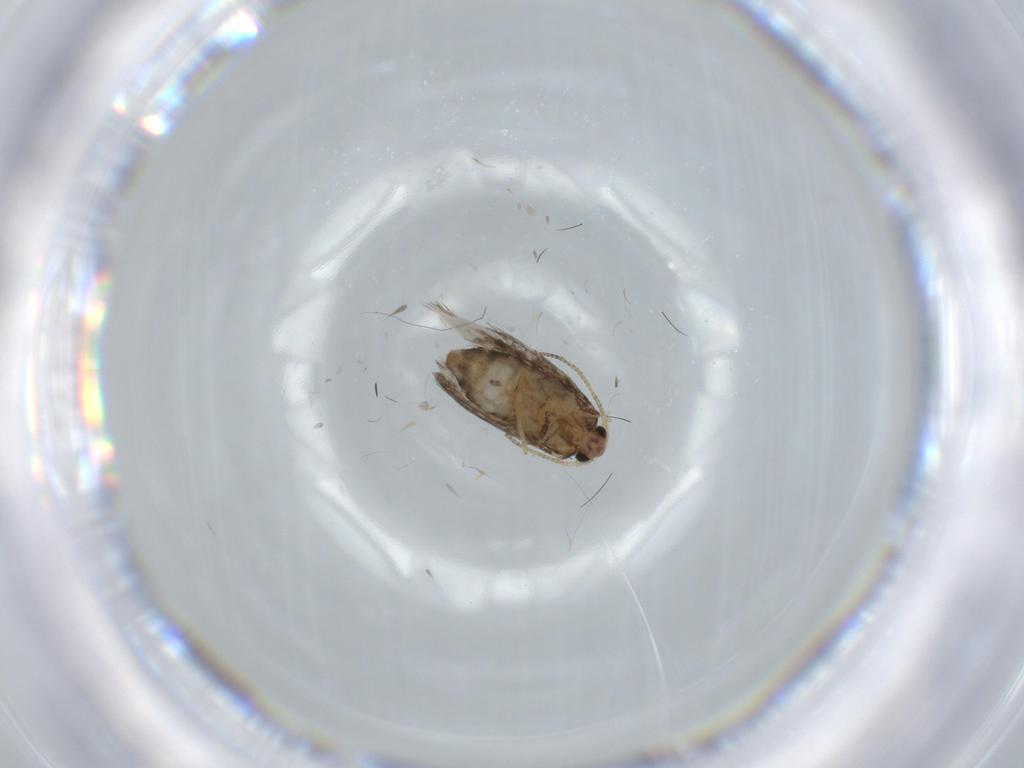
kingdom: Animalia
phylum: Arthropoda
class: Insecta
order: Lepidoptera
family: Nepticulidae
